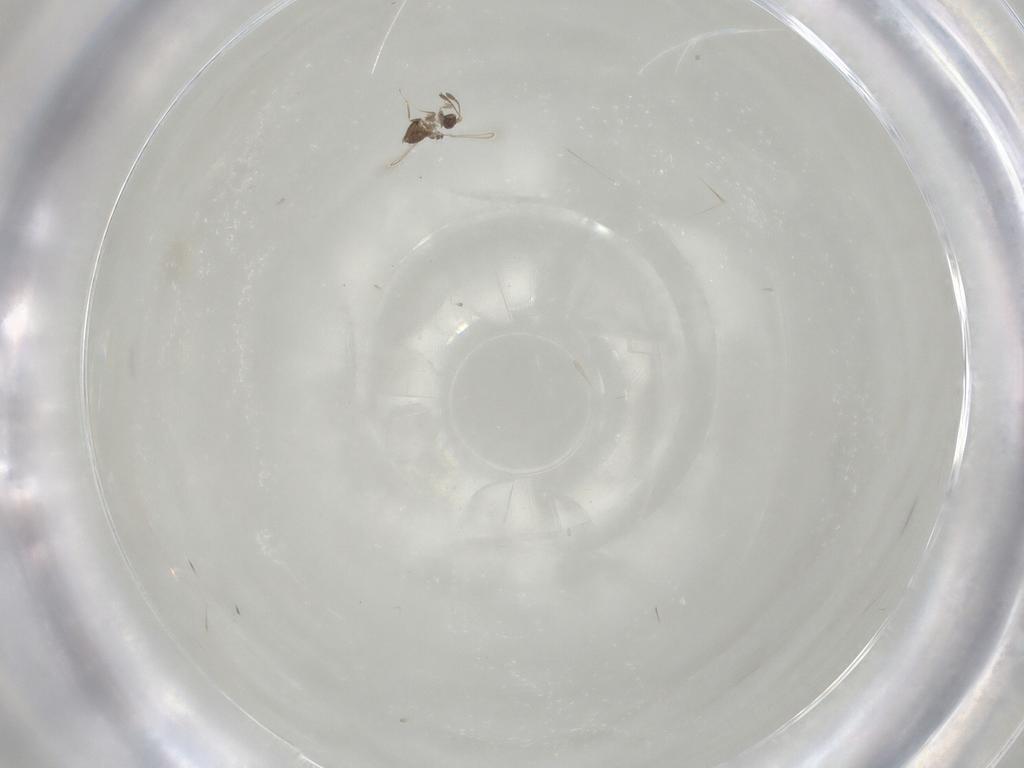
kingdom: Animalia
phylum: Arthropoda
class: Insecta
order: Hymenoptera
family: Mymaridae
